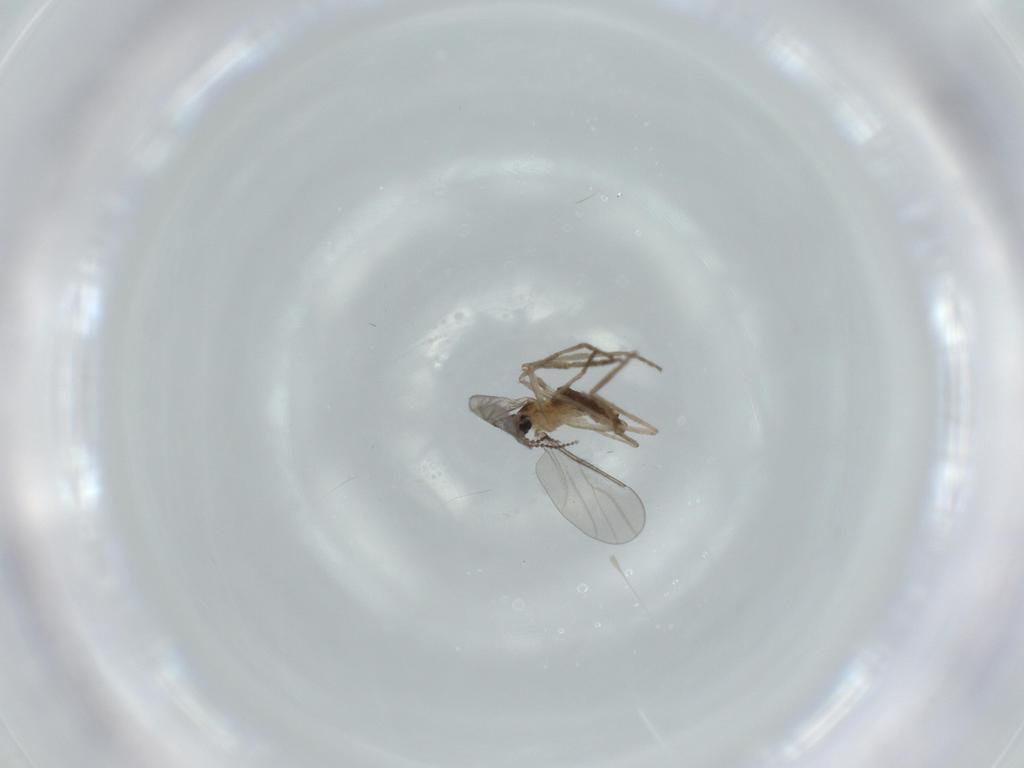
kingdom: Animalia
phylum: Arthropoda
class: Insecta
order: Diptera
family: Cecidomyiidae
